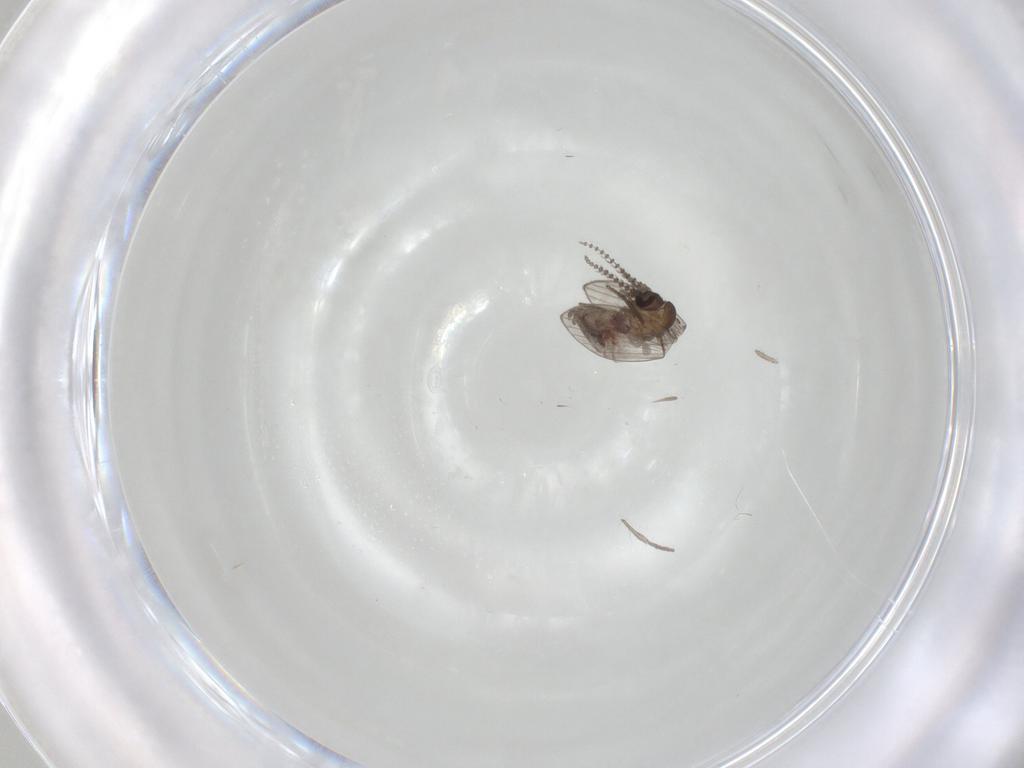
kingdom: Animalia
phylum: Arthropoda
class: Insecta
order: Diptera
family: Psychodidae
